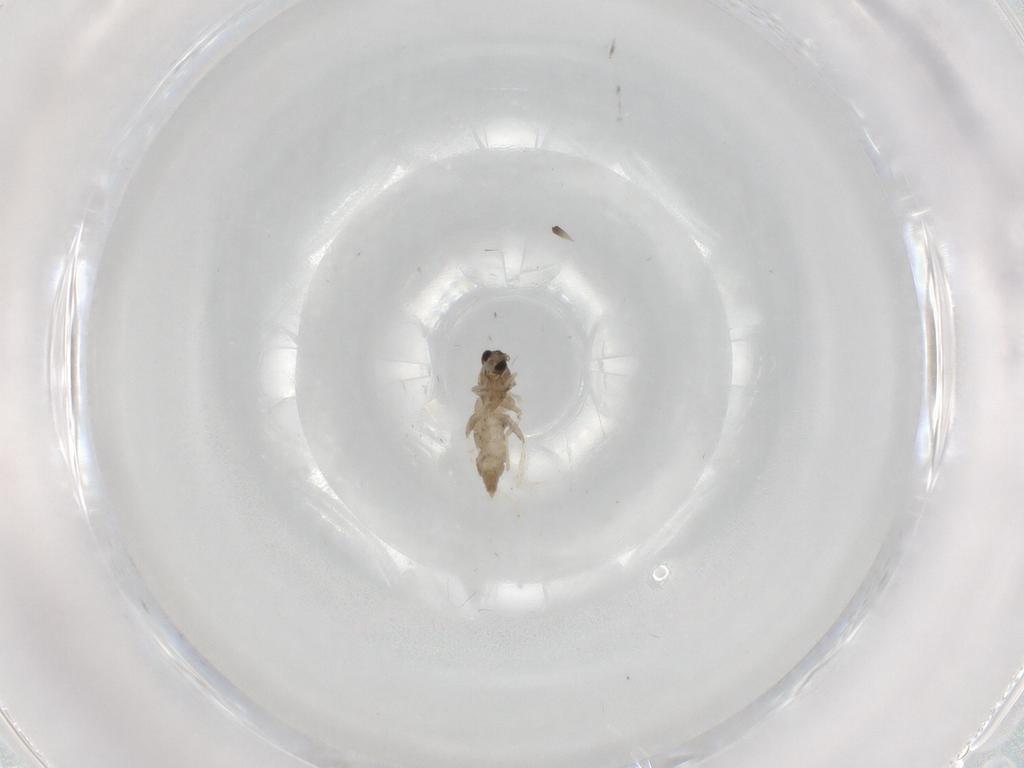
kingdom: Animalia
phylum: Arthropoda
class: Insecta
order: Diptera
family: Cecidomyiidae
